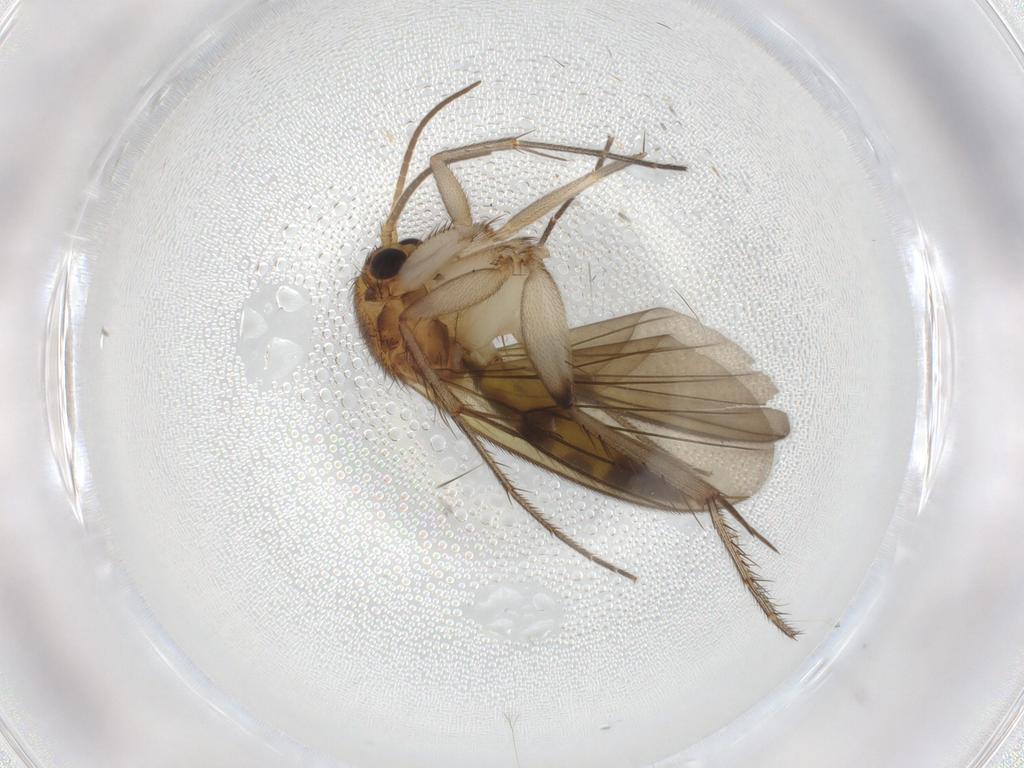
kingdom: Animalia
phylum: Arthropoda
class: Insecta
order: Diptera
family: Mycetophilidae
